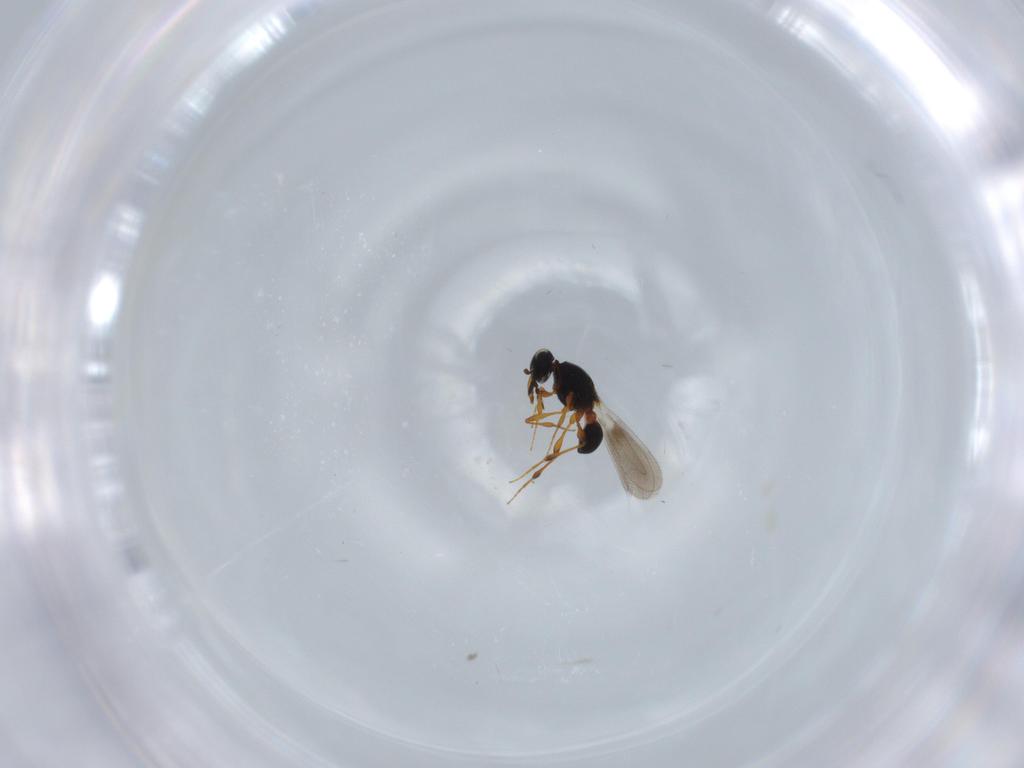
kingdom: Animalia
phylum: Arthropoda
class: Insecta
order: Hymenoptera
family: Platygastridae
